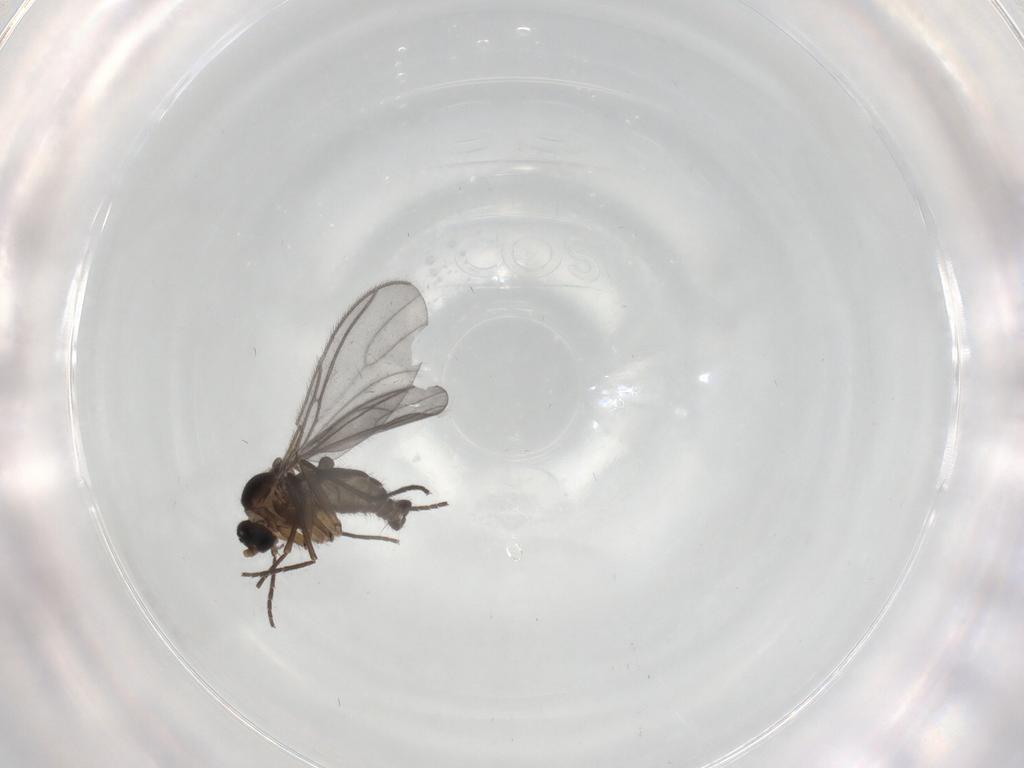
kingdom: Animalia
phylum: Arthropoda
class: Insecta
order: Diptera
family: Sciaridae
